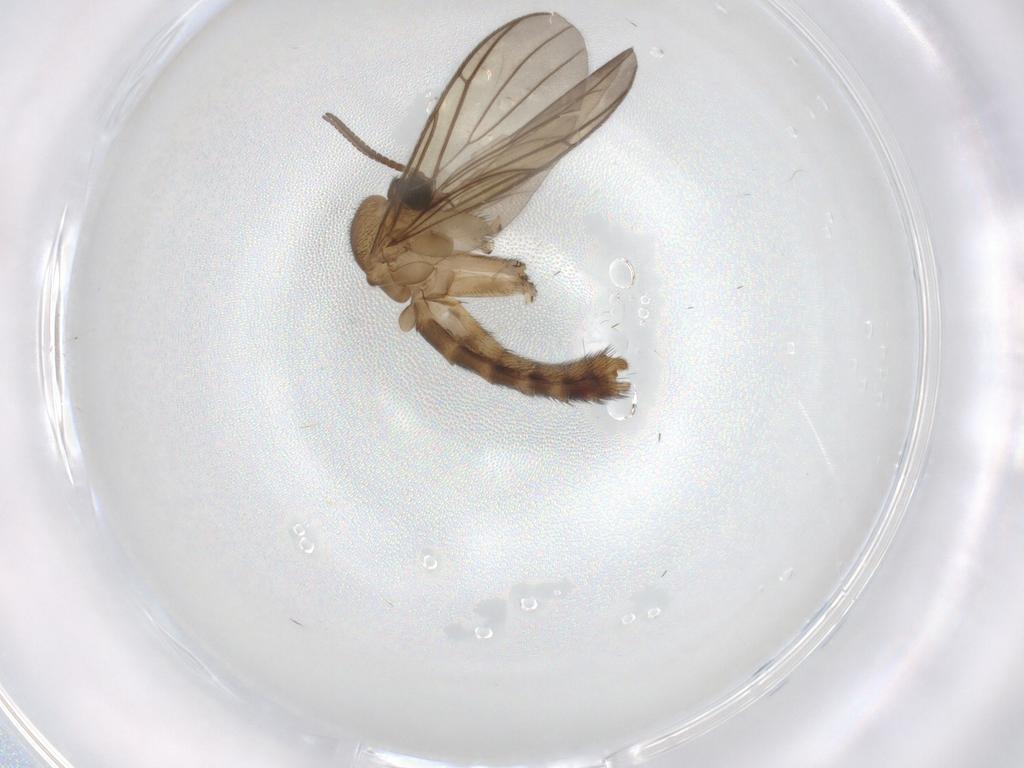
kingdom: Animalia
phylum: Arthropoda
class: Insecta
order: Diptera
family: Keroplatidae
